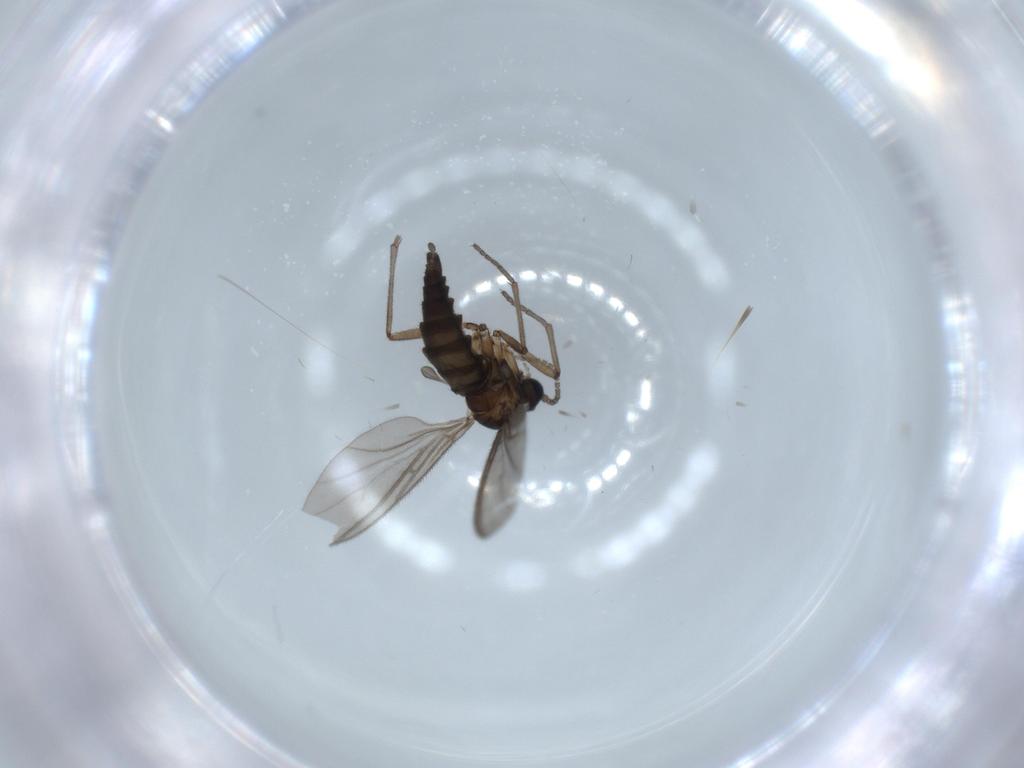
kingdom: Animalia
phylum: Arthropoda
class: Insecta
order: Diptera
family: Sciaridae
